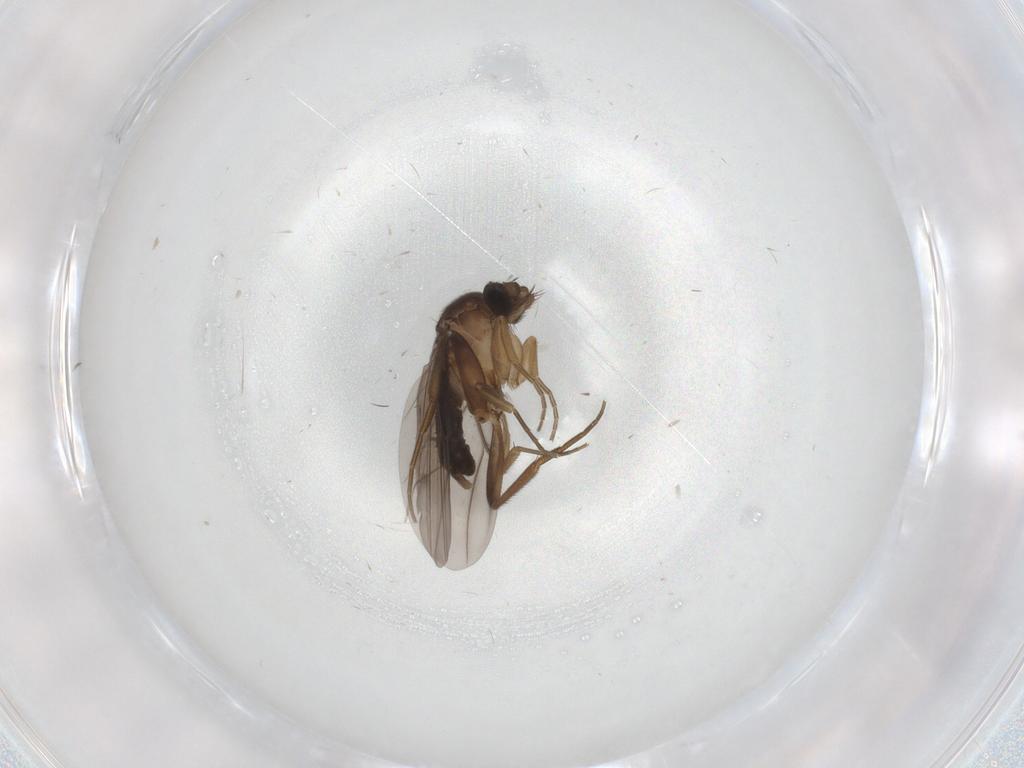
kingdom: Animalia
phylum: Arthropoda
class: Insecta
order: Diptera
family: Phoridae
